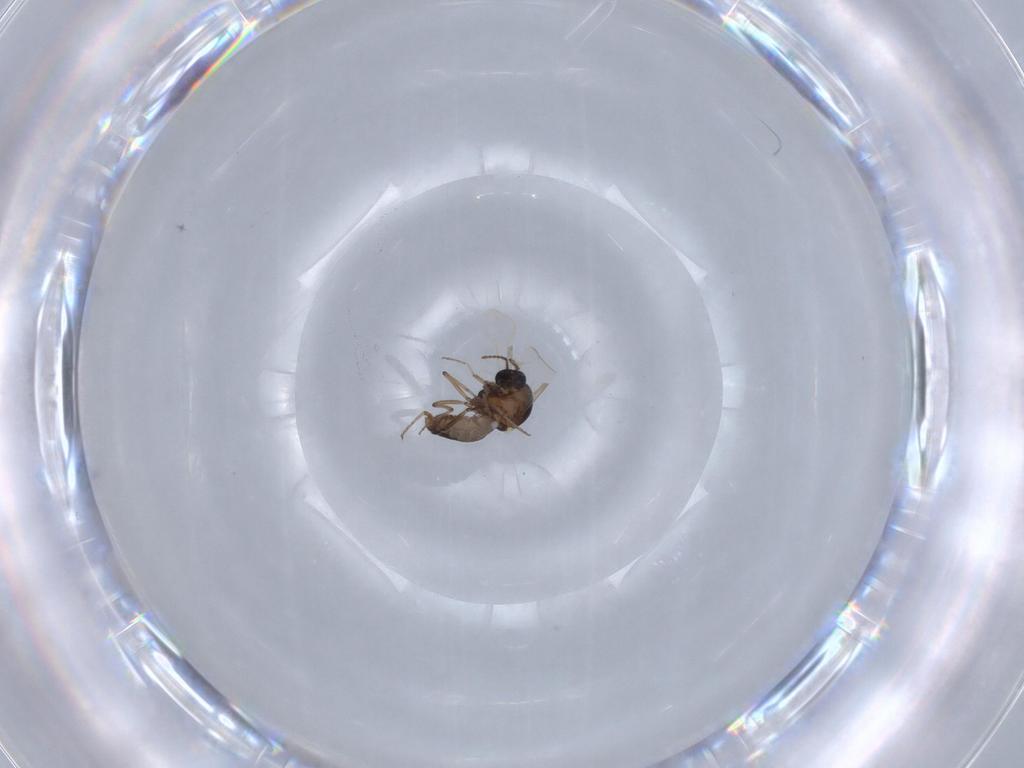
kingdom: Animalia
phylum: Arthropoda
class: Insecta
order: Diptera
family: Ceratopogonidae
